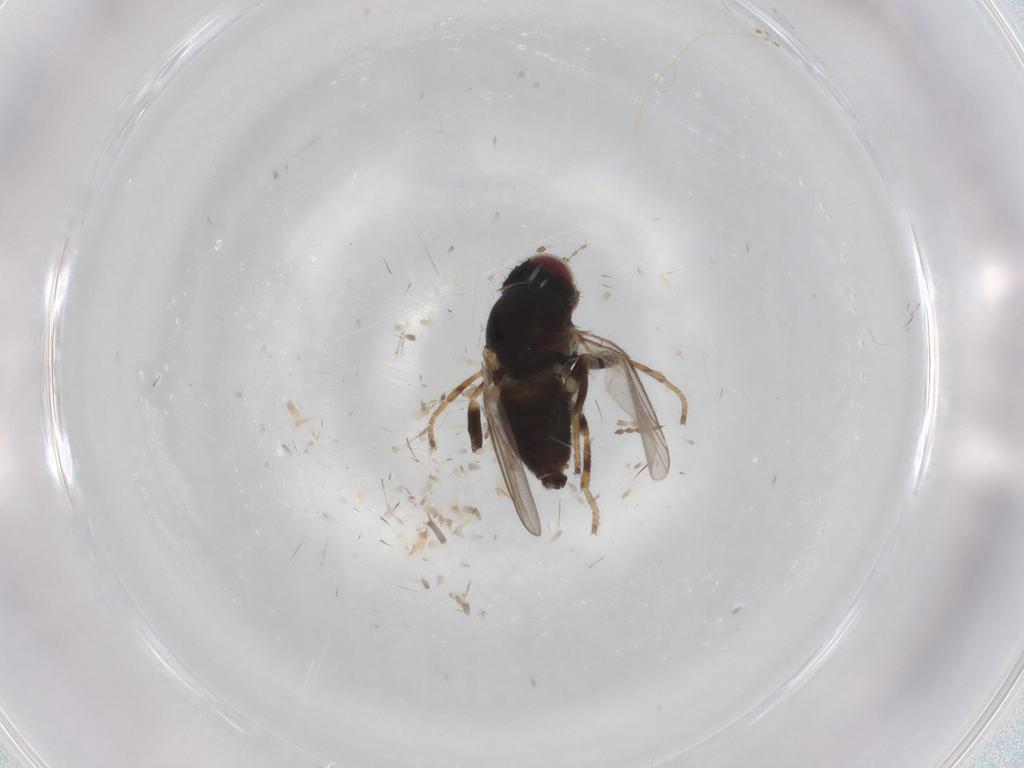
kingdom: Animalia
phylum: Arthropoda
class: Insecta
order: Diptera
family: Chloropidae
